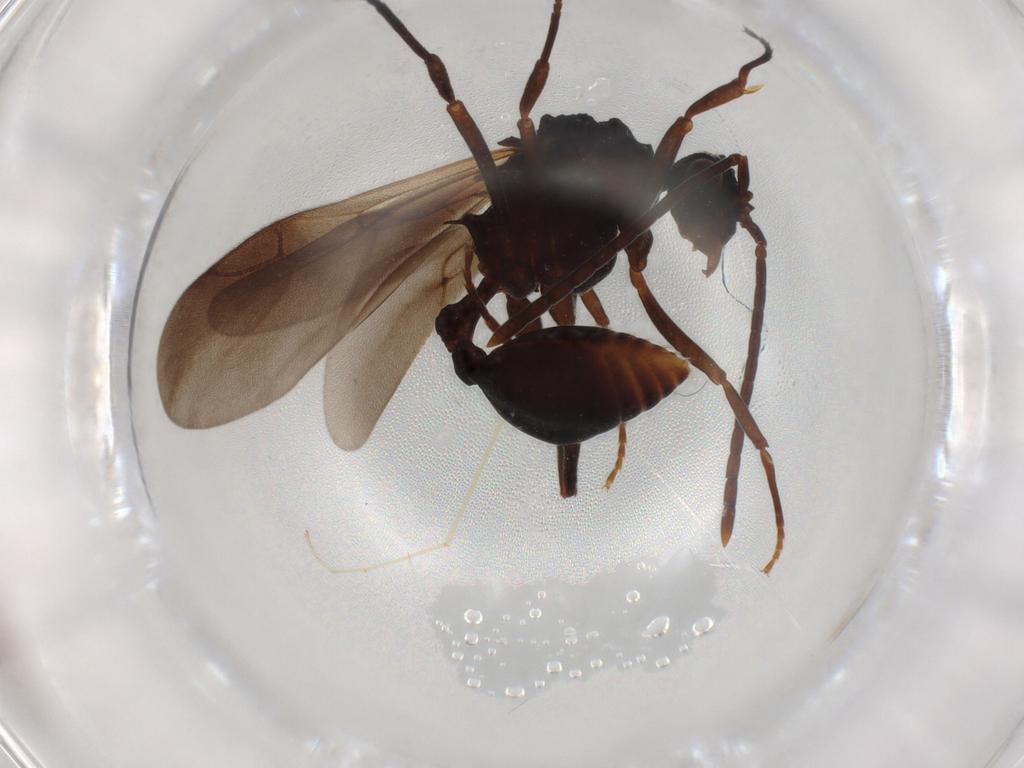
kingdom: Animalia
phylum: Arthropoda
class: Insecta
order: Hymenoptera
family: Formicidae
